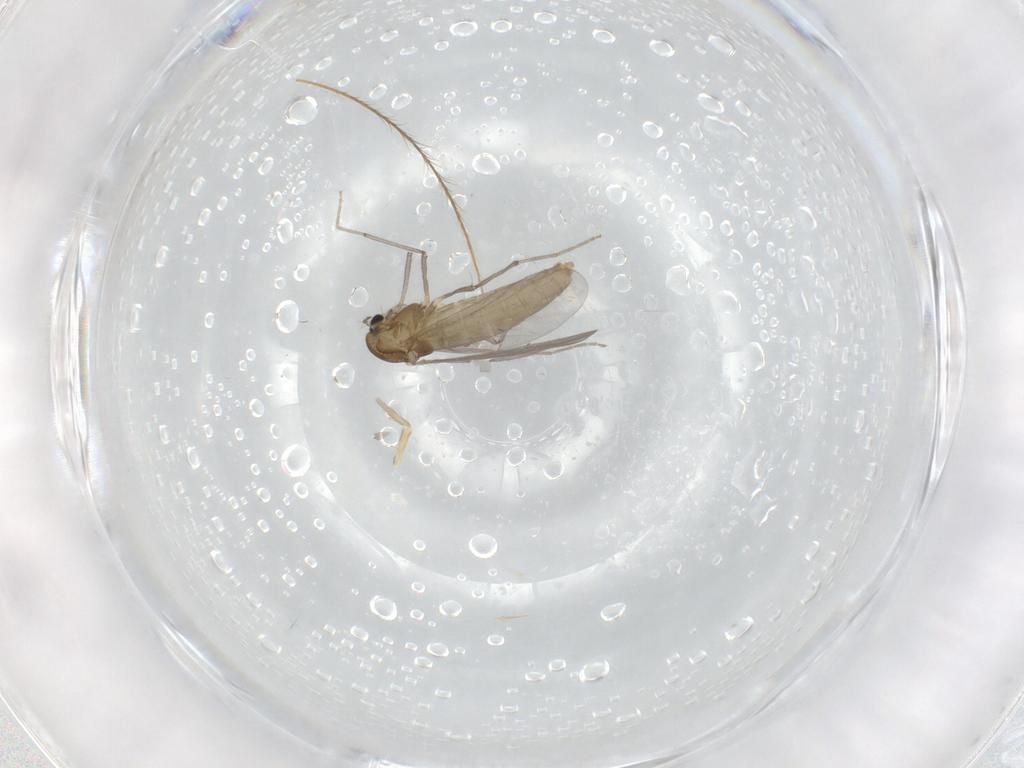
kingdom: Animalia
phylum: Arthropoda
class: Insecta
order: Diptera
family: Chironomidae
